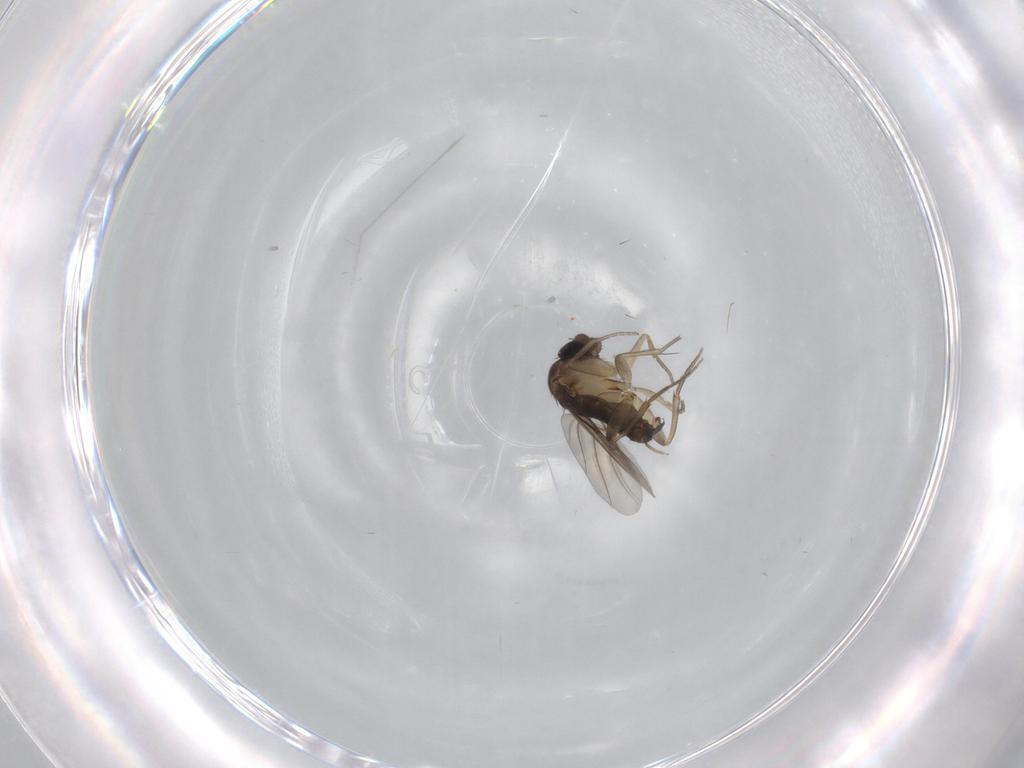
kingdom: Animalia
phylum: Arthropoda
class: Insecta
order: Diptera
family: Phoridae
